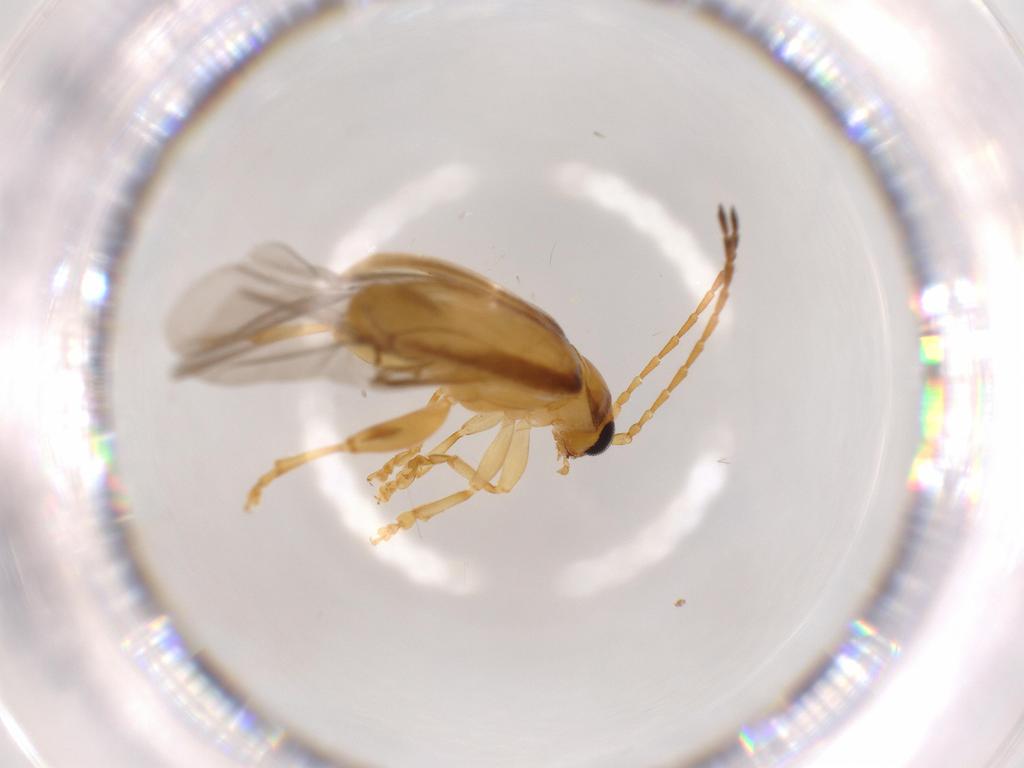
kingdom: Animalia
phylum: Arthropoda
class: Insecta
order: Coleoptera
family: Chrysomelidae
